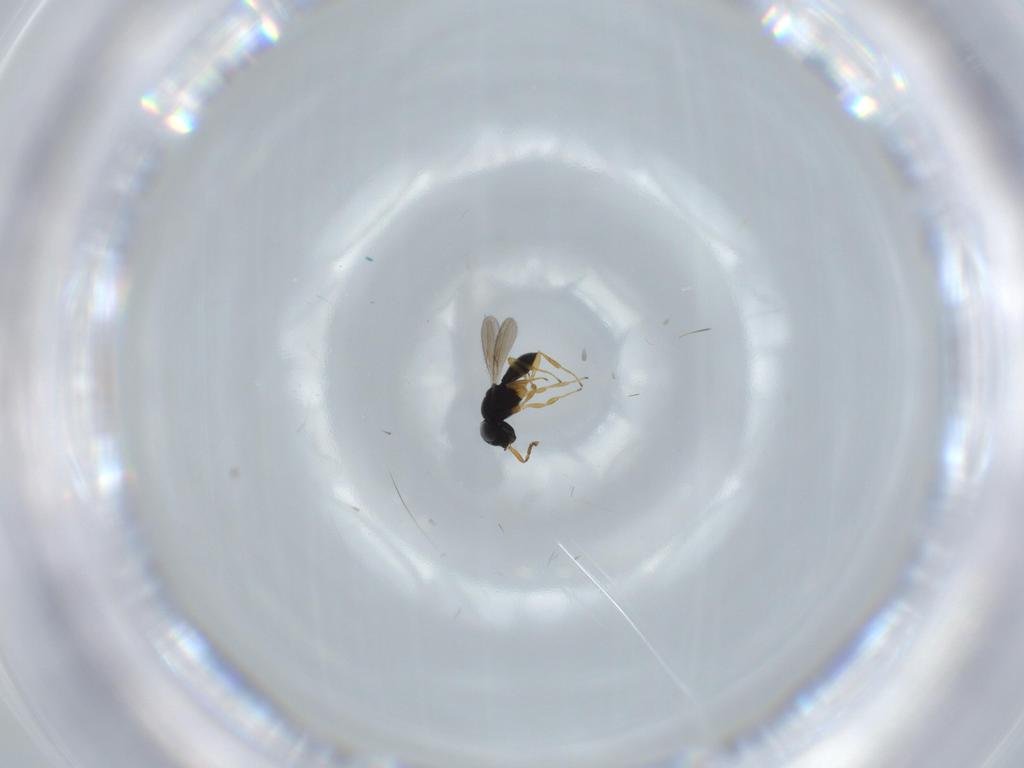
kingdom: Animalia
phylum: Arthropoda
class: Insecta
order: Hymenoptera
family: Scelionidae
